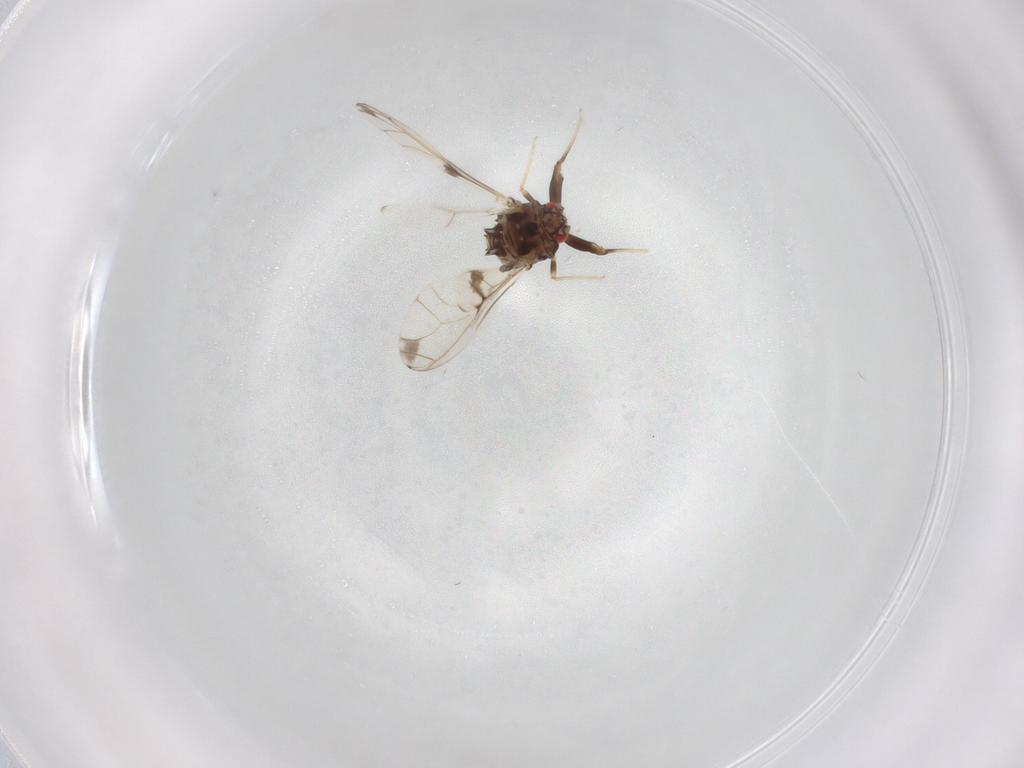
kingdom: Animalia
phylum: Arthropoda
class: Insecta
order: Hemiptera
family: Aphididae
